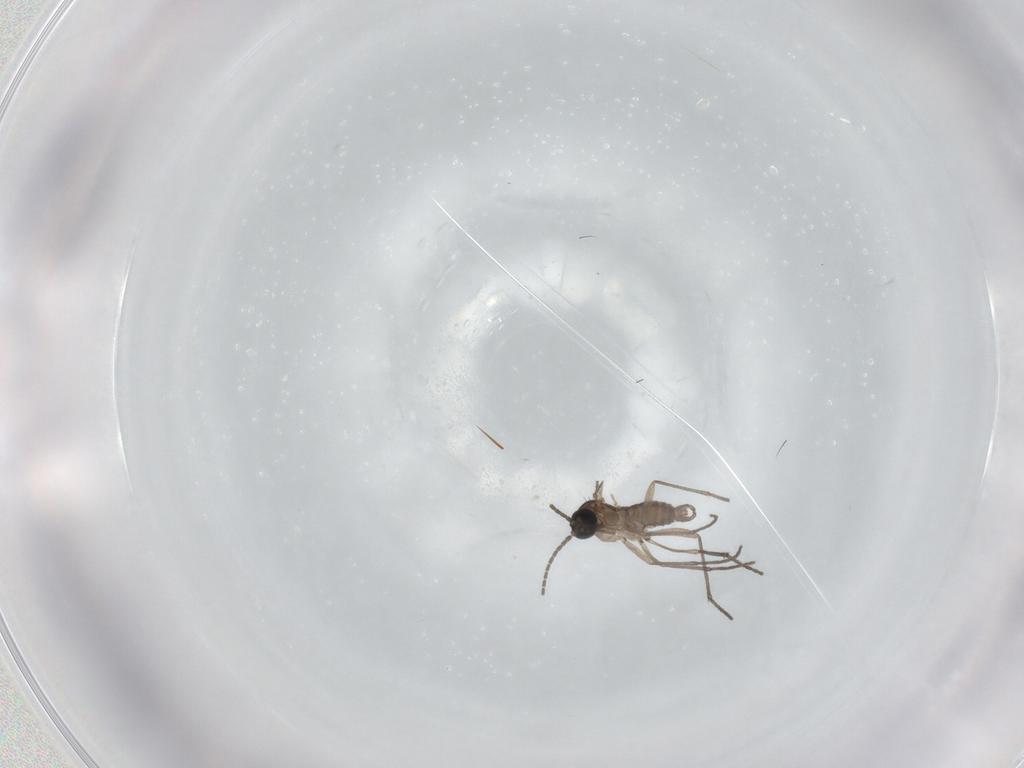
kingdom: Animalia
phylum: Arthropoda
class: Insecta
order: Diptera
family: Sciaridae
